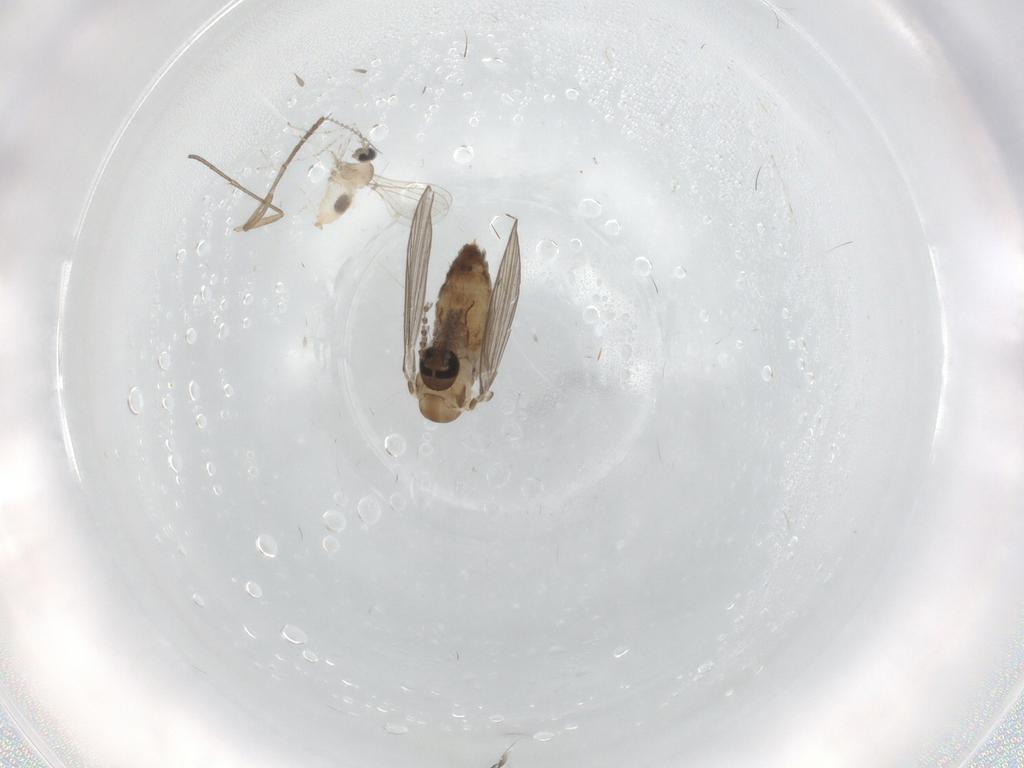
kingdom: Animalia
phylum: Arthropoda
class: Insecta
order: Diptera
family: Psychodidae
